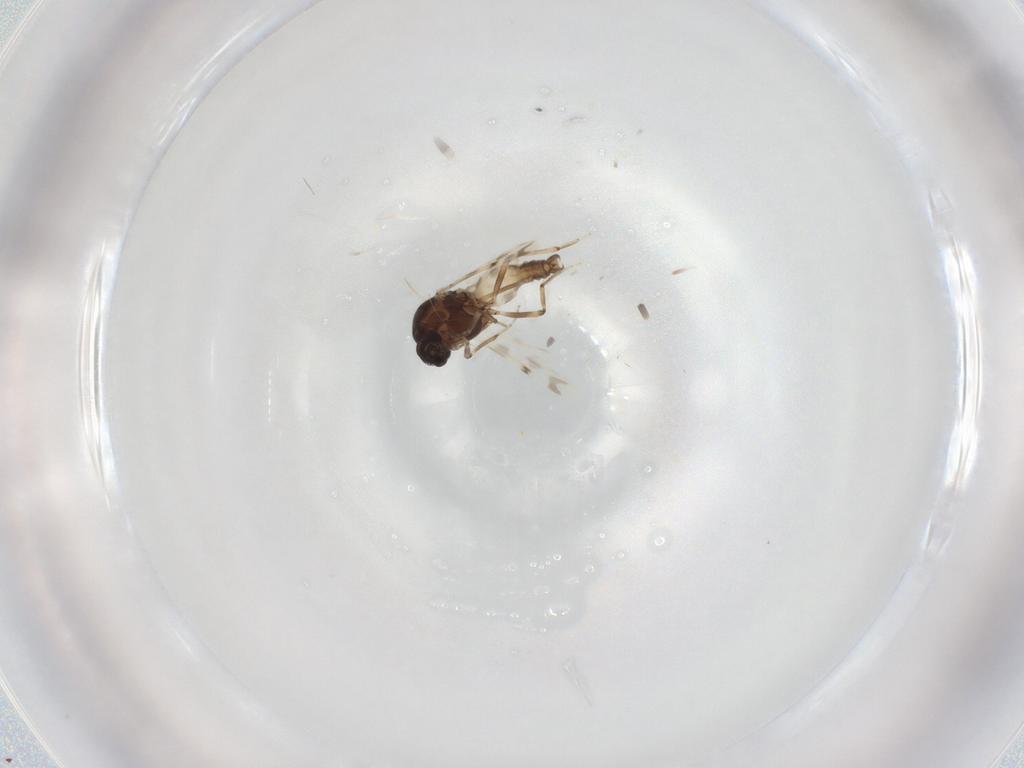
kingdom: Animalia
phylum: Arthropoda
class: Insecta
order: Diptera
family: Ceratopogonidae
